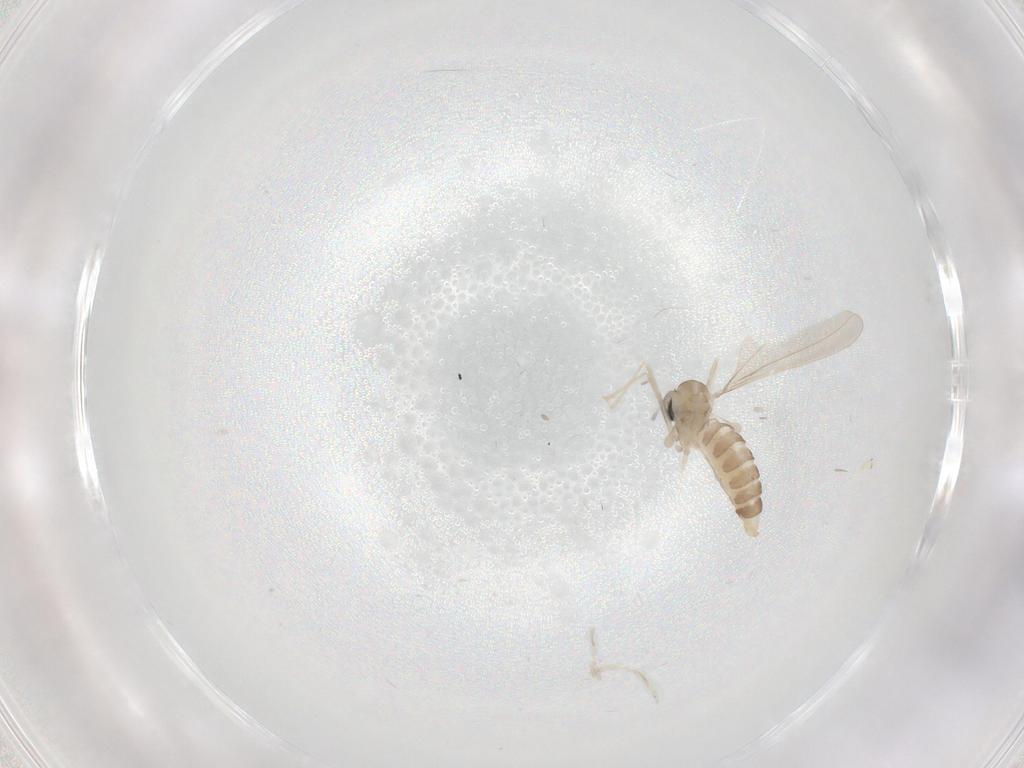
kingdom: Animalia
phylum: Arthropoda
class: Insecta
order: Diptera
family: Cecidomyiidae
